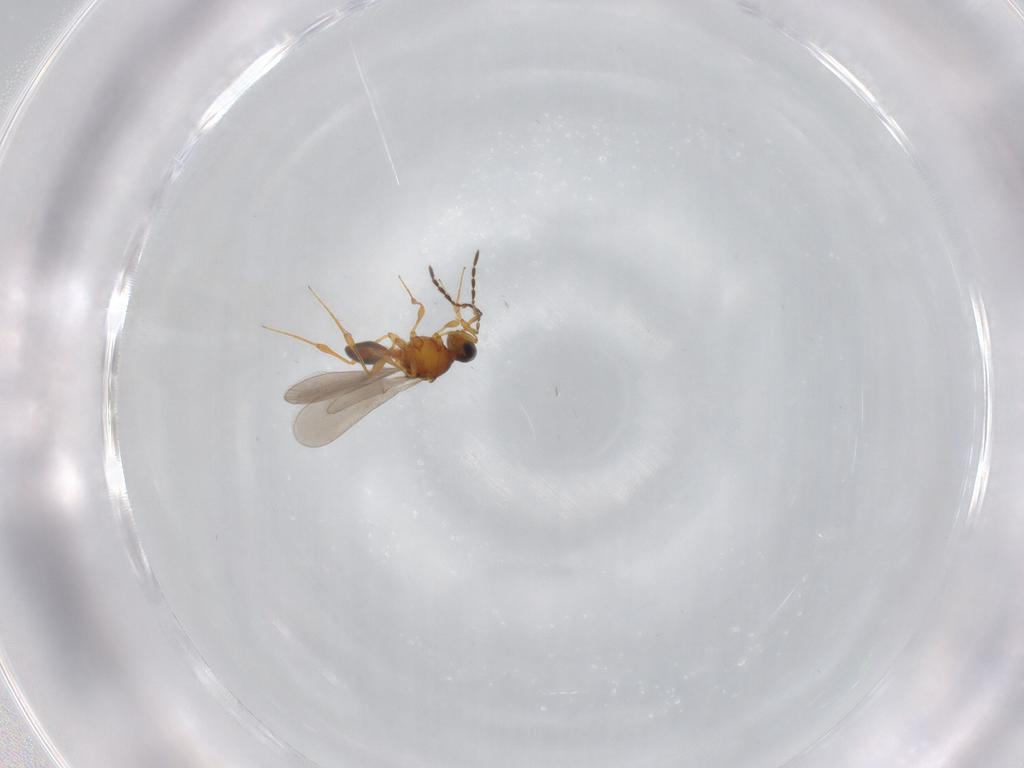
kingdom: Animalia
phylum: Arthropoda
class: Insecta
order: Hymenoptera
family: Platygastridae
